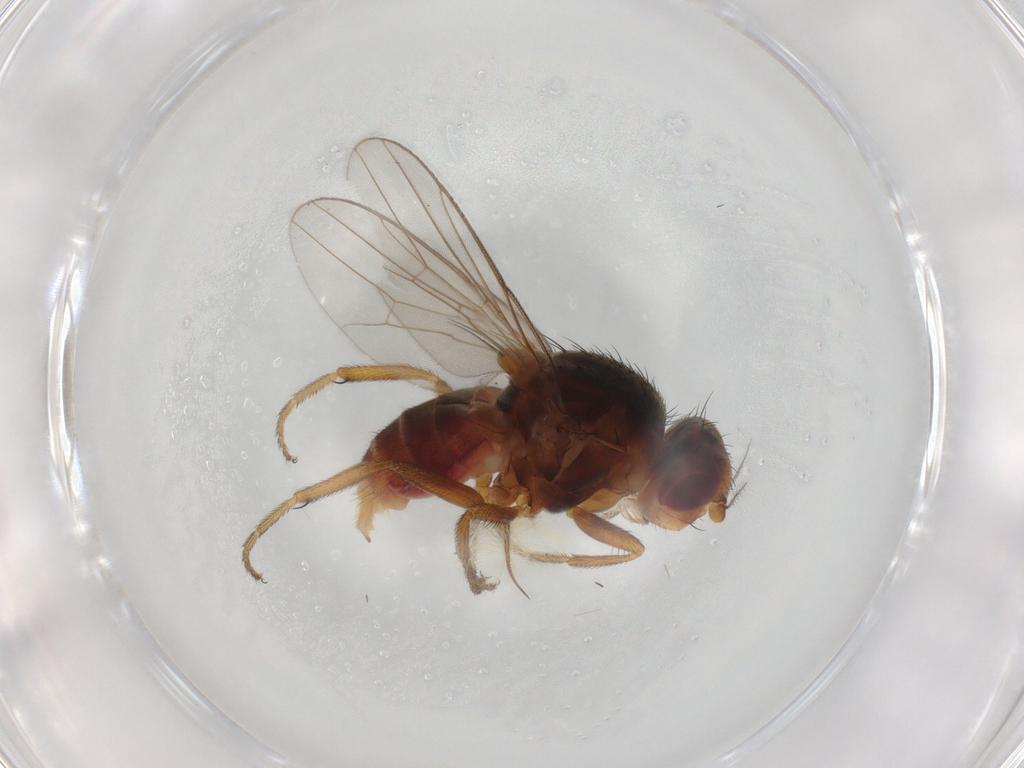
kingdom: Animalia
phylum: Arthropoda
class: Insecta
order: Diptera
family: Chloropidae
